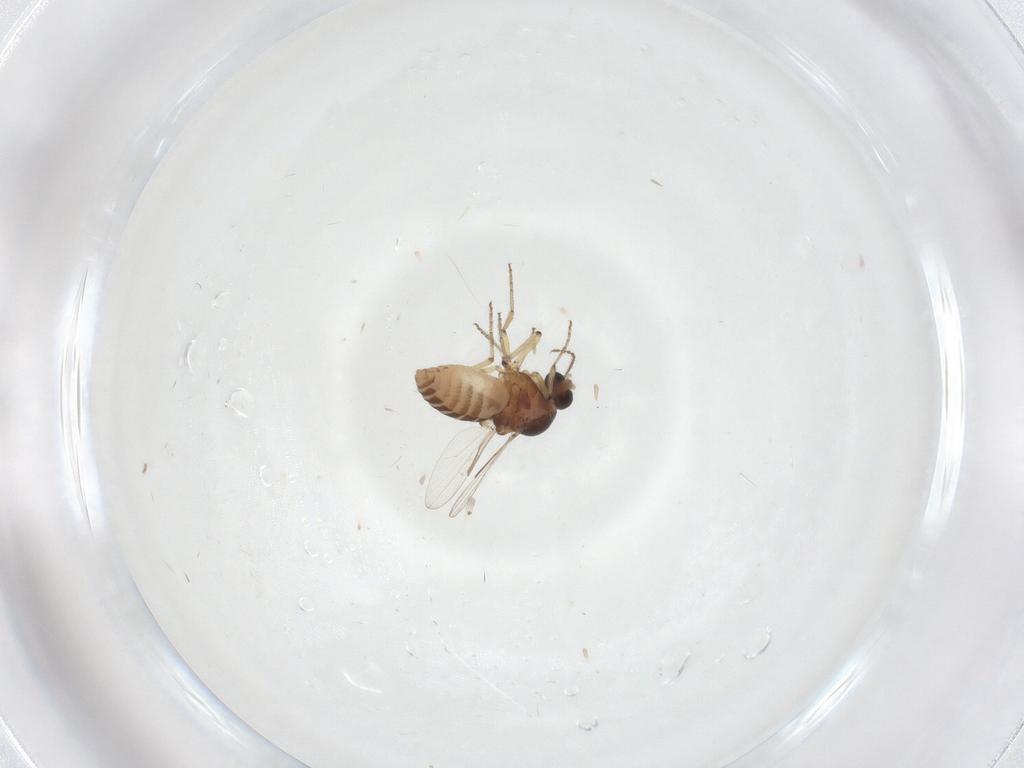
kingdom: Animalia
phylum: Arthropoda
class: Insecta
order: Diptera
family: Ceratopogonidae
